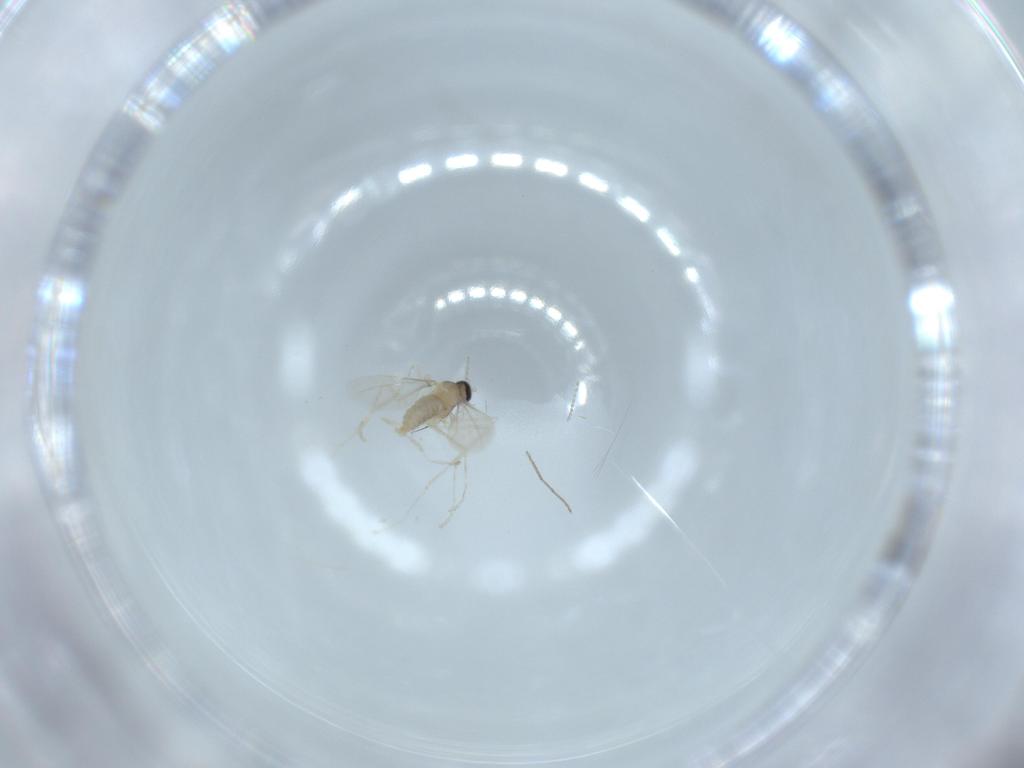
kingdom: Animalia
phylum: Arthropoda
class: Insecta
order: Diptera
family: Cecidomyiidae
